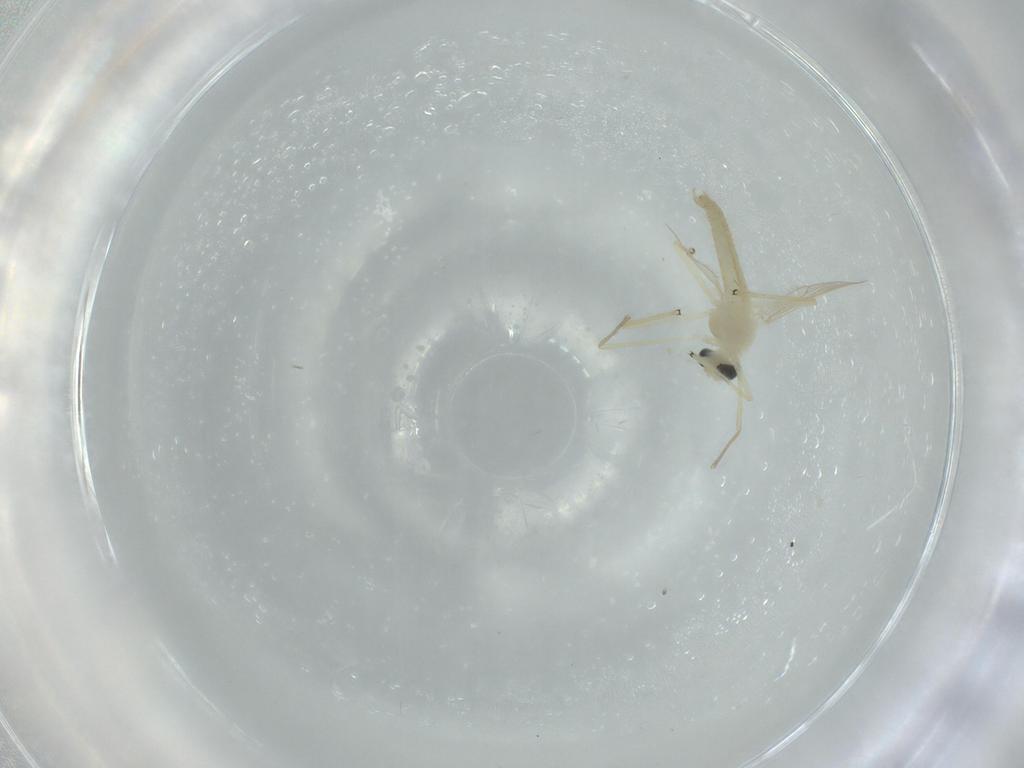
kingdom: Animalia
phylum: Arthropoda
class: Insecta
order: Diptera
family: Chironomidae
